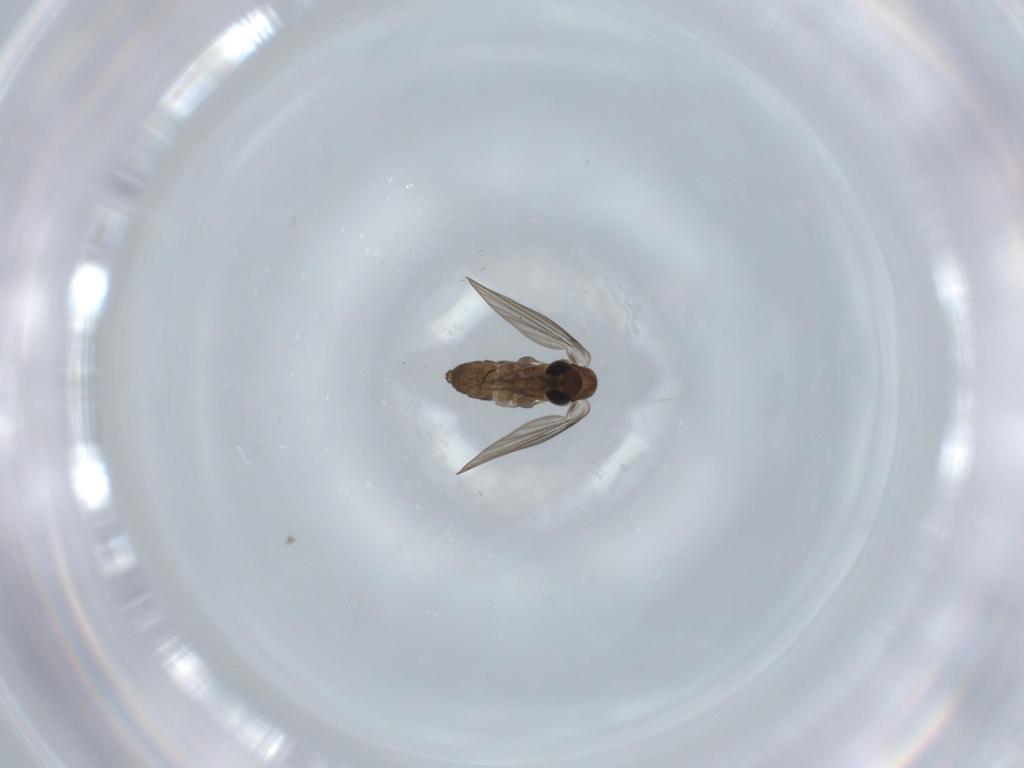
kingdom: Animalia
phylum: Arthropoda
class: Insecta
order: Diptera
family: Psychodidae
